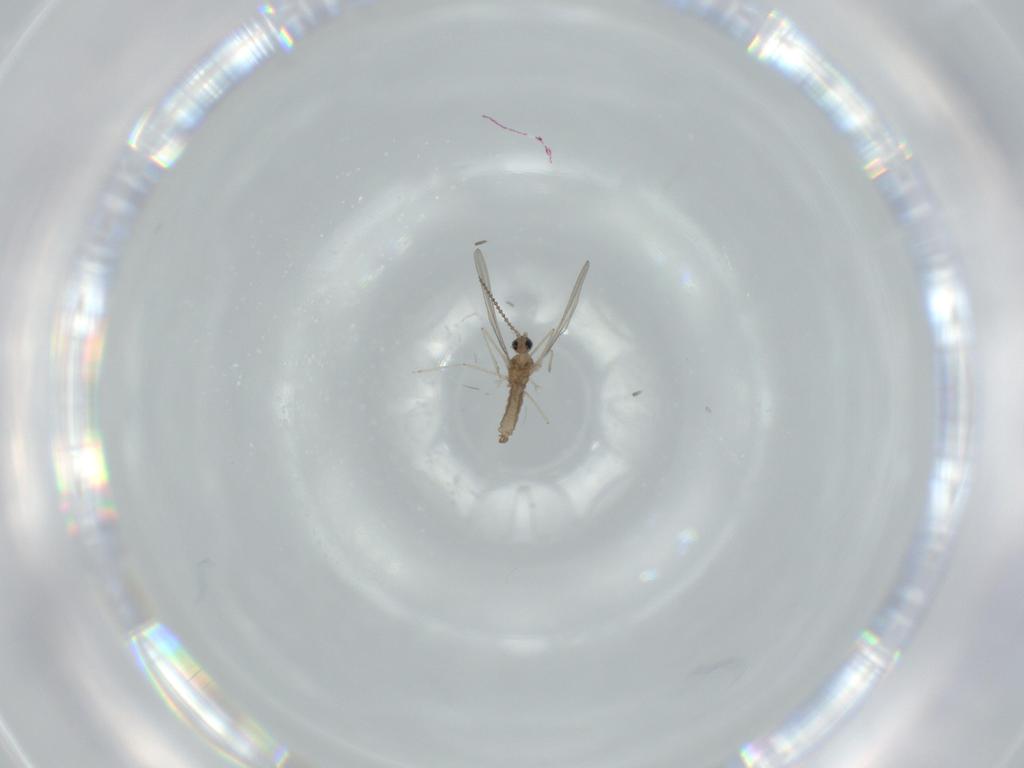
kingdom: Animalia
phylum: Arthropoda
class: Insecta
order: Diptera
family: Cecidomyiidae
